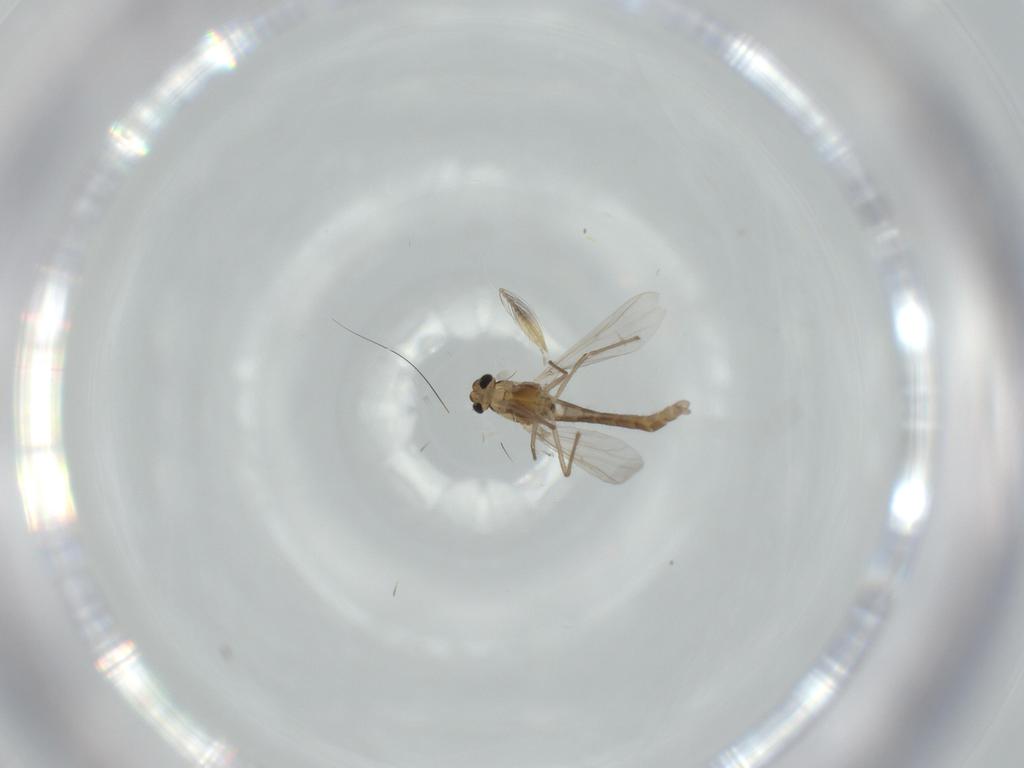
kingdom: Animalia
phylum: Arthropoda
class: Insecta
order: Diptera
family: Chironomidae
